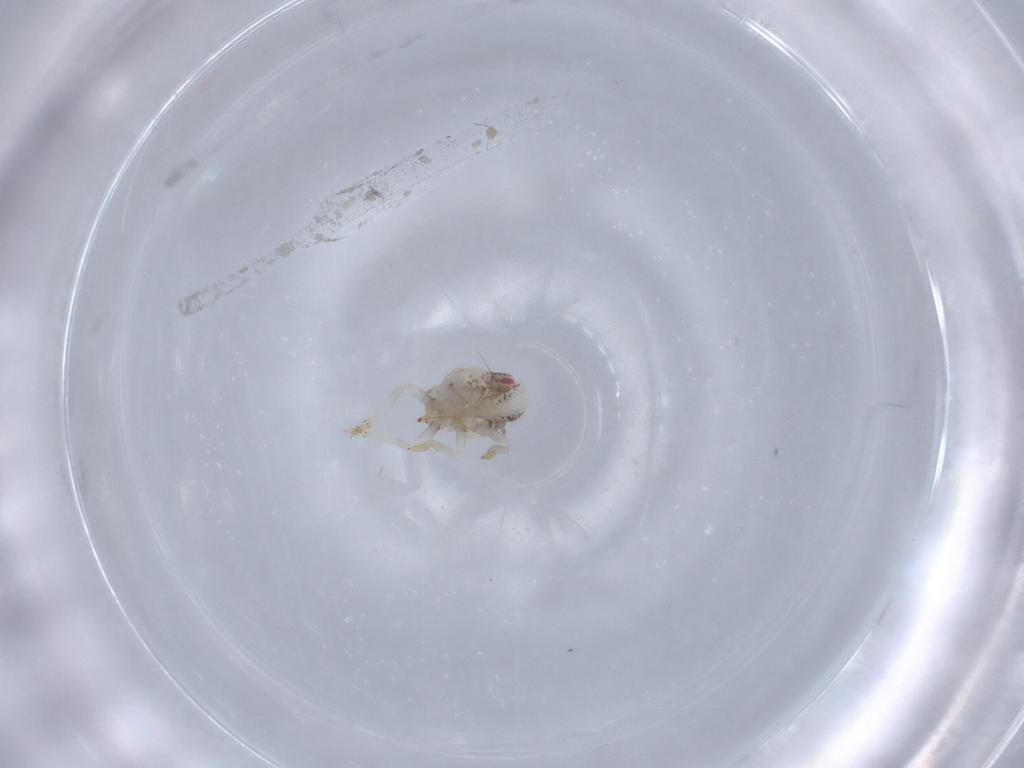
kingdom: Animalia
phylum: Arthropoda
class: Insecta
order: Hemiptera
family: Acanaloniidae
